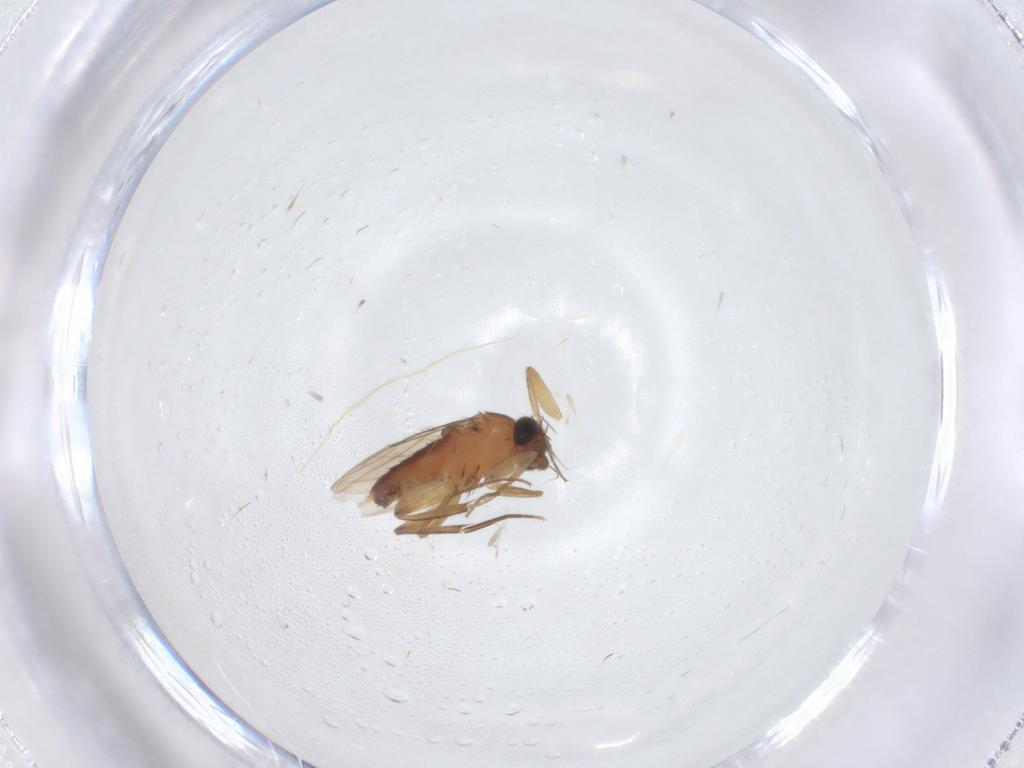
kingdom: Animalia
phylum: Arthropoda
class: Insecta
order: Diptera
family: Phoridae
